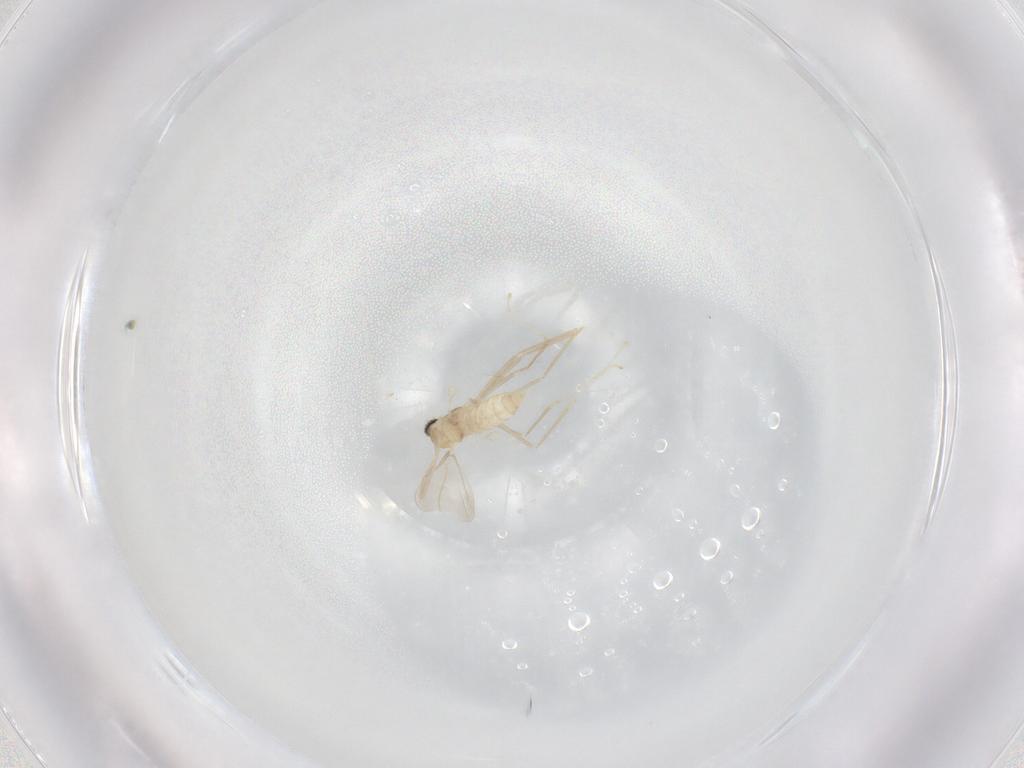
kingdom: Animalia
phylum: Arthropoda
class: Insecta
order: Diptera
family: Cecidomyiidae
